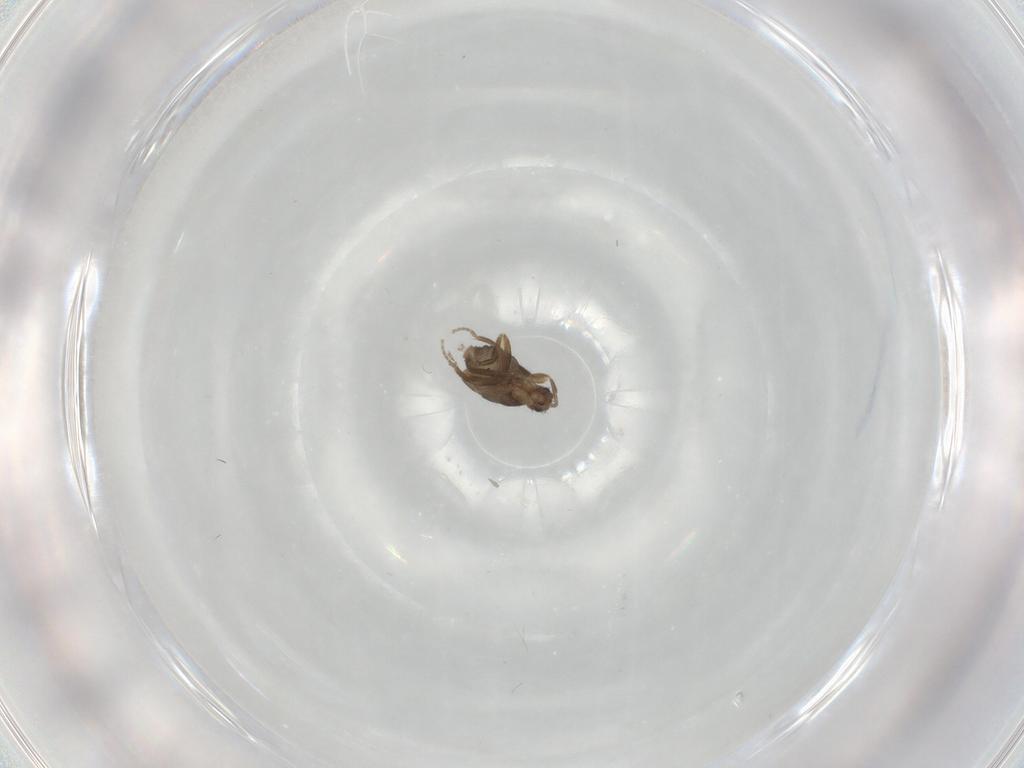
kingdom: Animalia
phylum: Arthropoda
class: Insecta
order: Diptera
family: Phoridae
